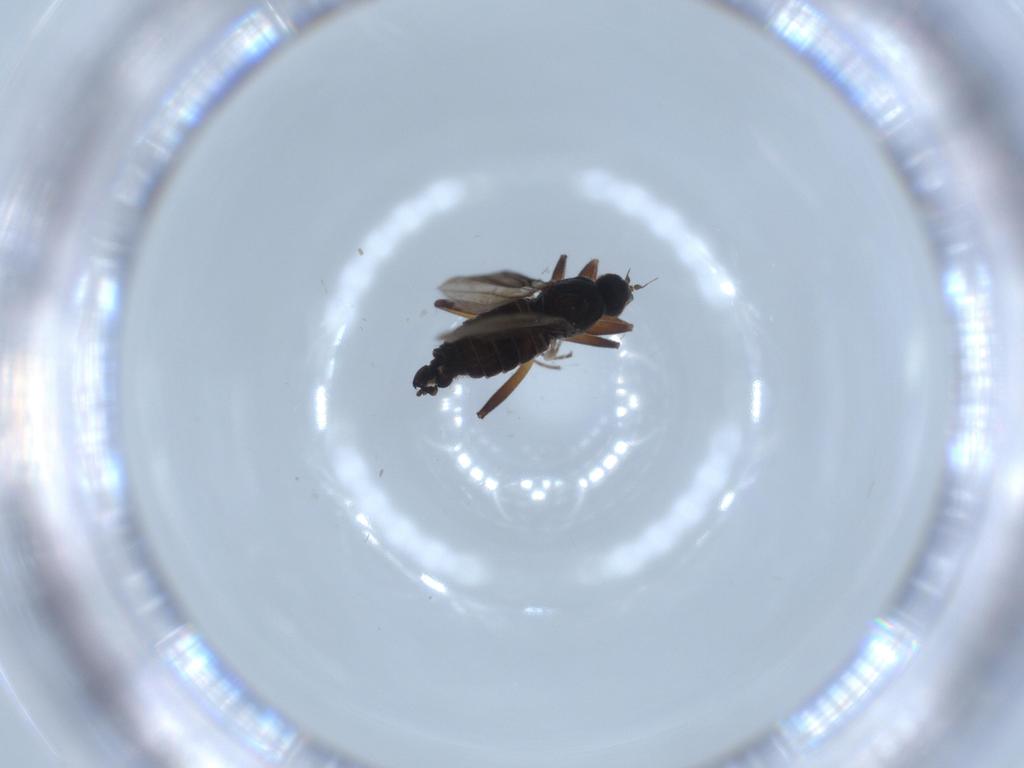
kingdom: Animalia
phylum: Arthropoda
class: Insecta
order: Diptera
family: Hybotidae
